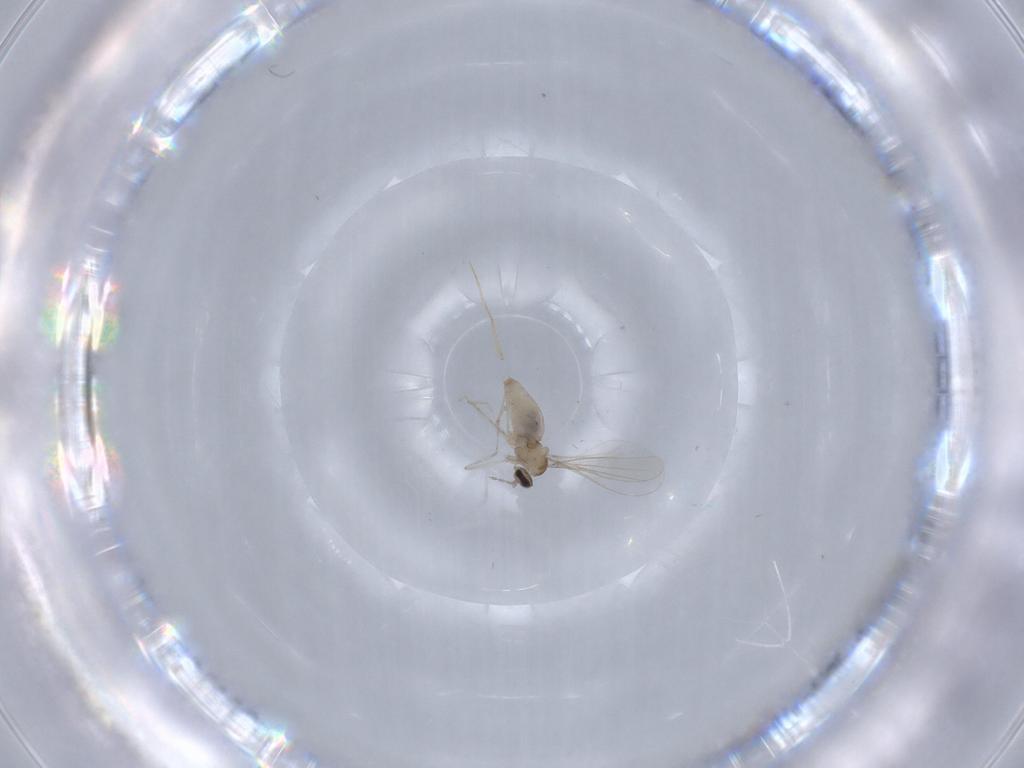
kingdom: Animalia
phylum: Arthropoda
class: Insecta
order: Diptera
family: Cecidomyiidae
